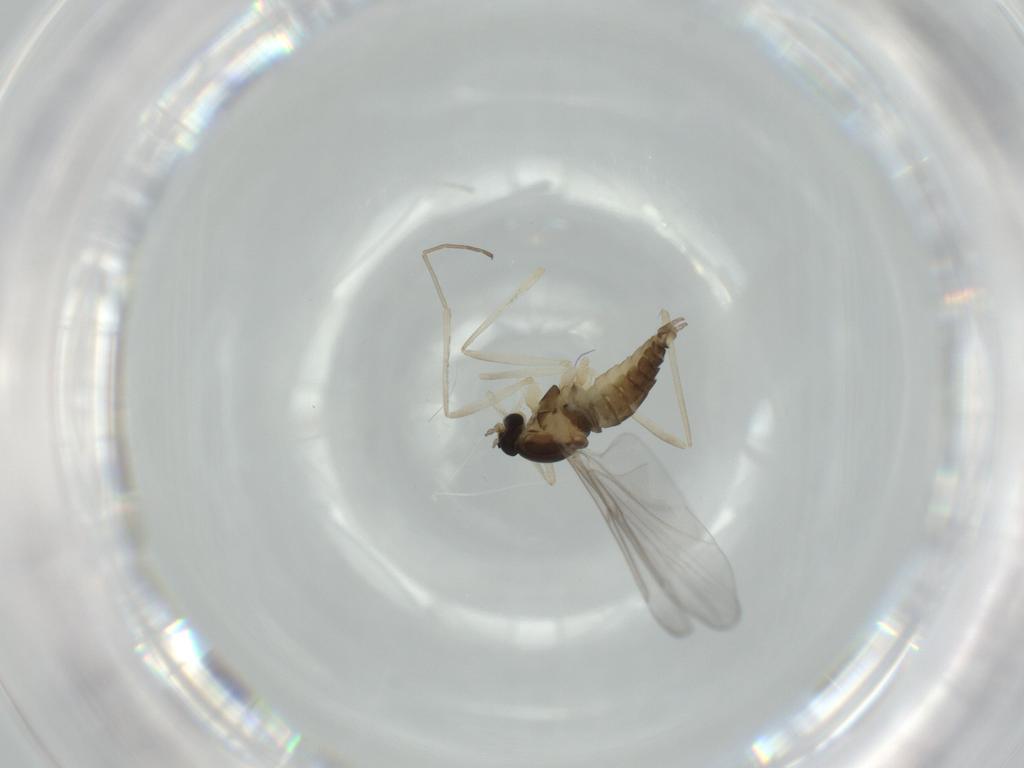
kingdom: Animalia
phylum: Arthropoda
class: Insecta
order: Diptera
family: Cecidomyiidae
